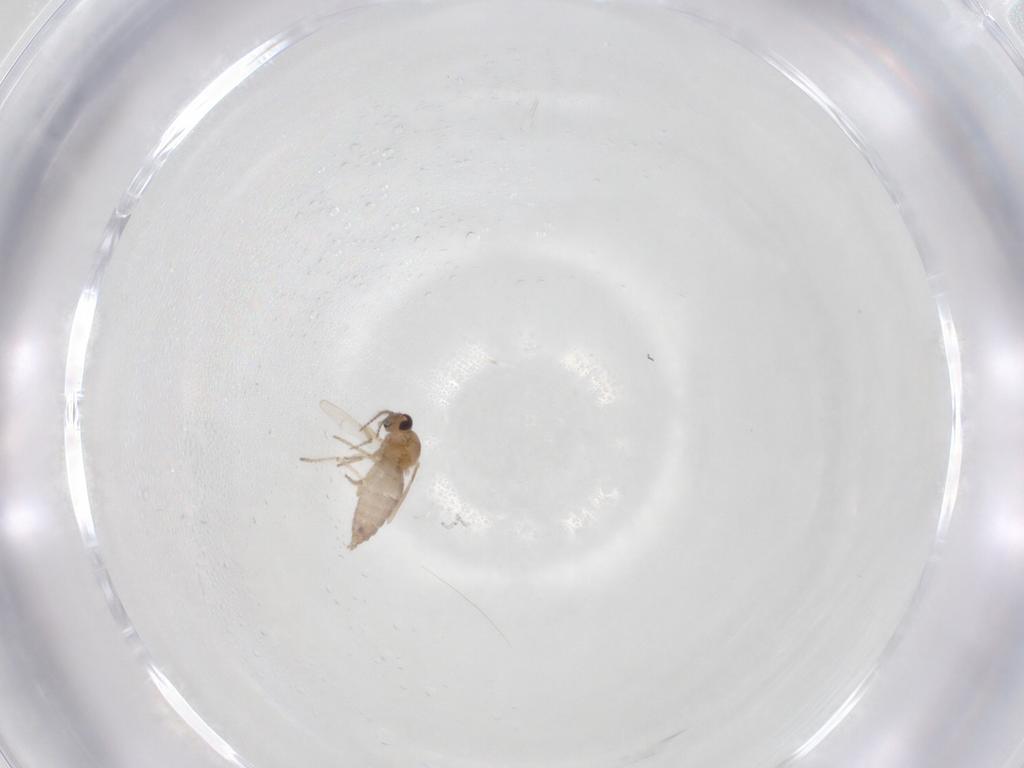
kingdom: Animalia
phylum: Arthropoda
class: Insecta
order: Diptera
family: Ceratopogonidae
